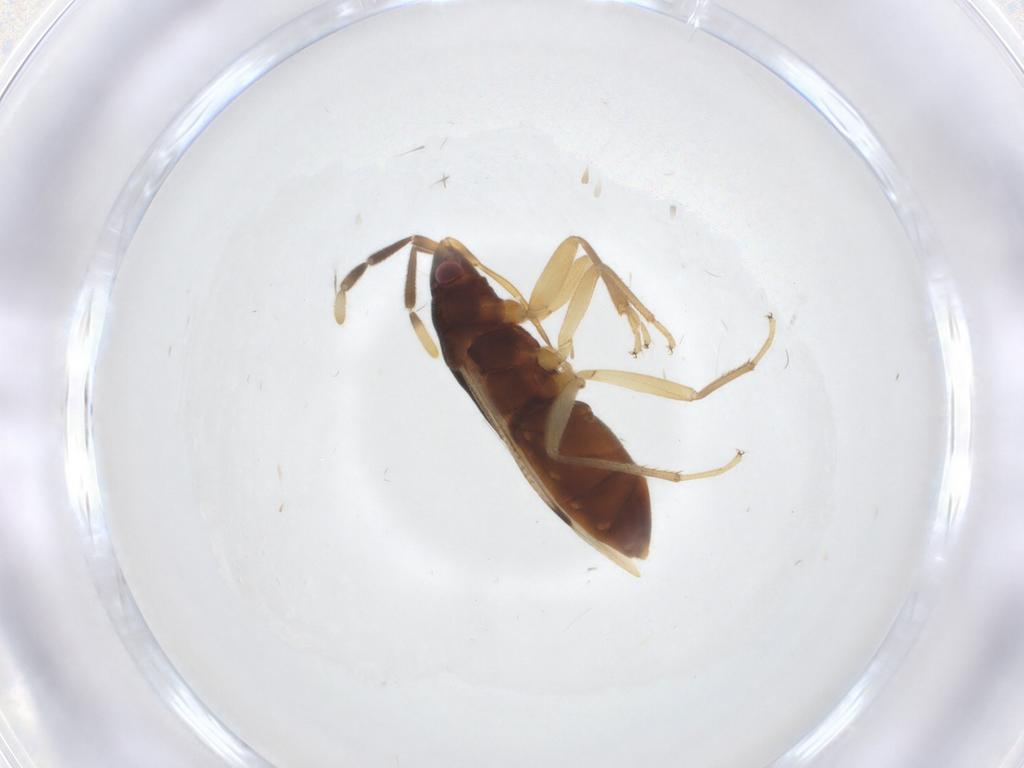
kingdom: Animalia
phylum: Arthropoda
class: Insecta
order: Hemiptera
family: Rhyparochromidae
